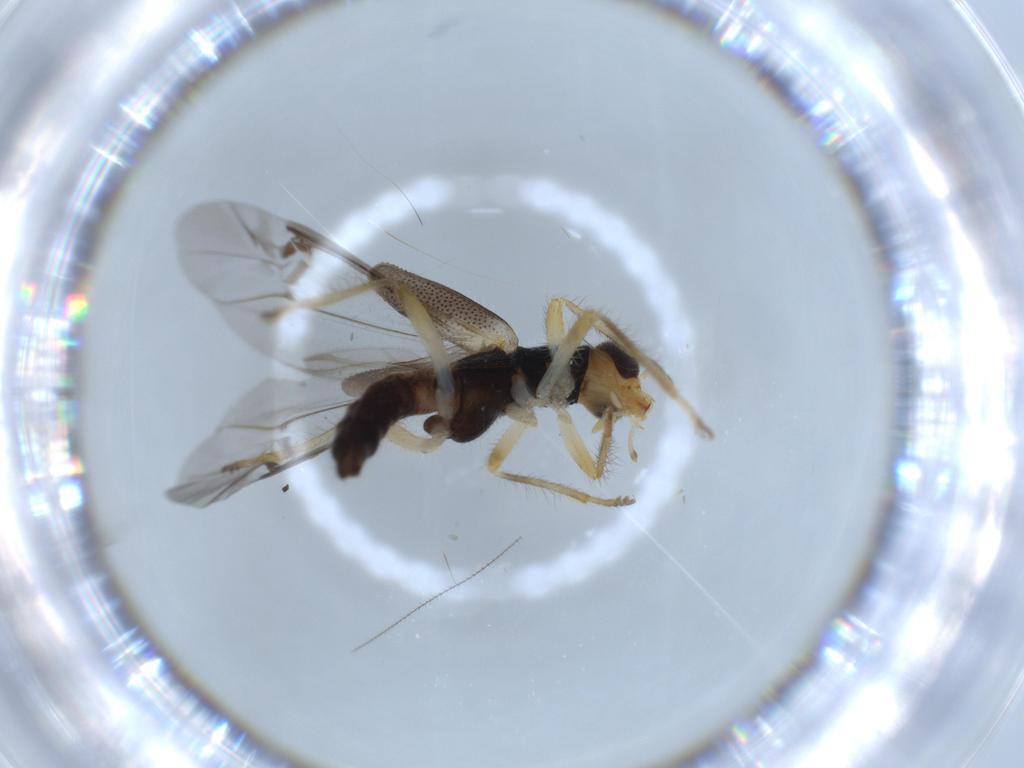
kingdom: Animalia
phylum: Arthropoda
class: Insecta
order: Coleoptera
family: Cleridae
